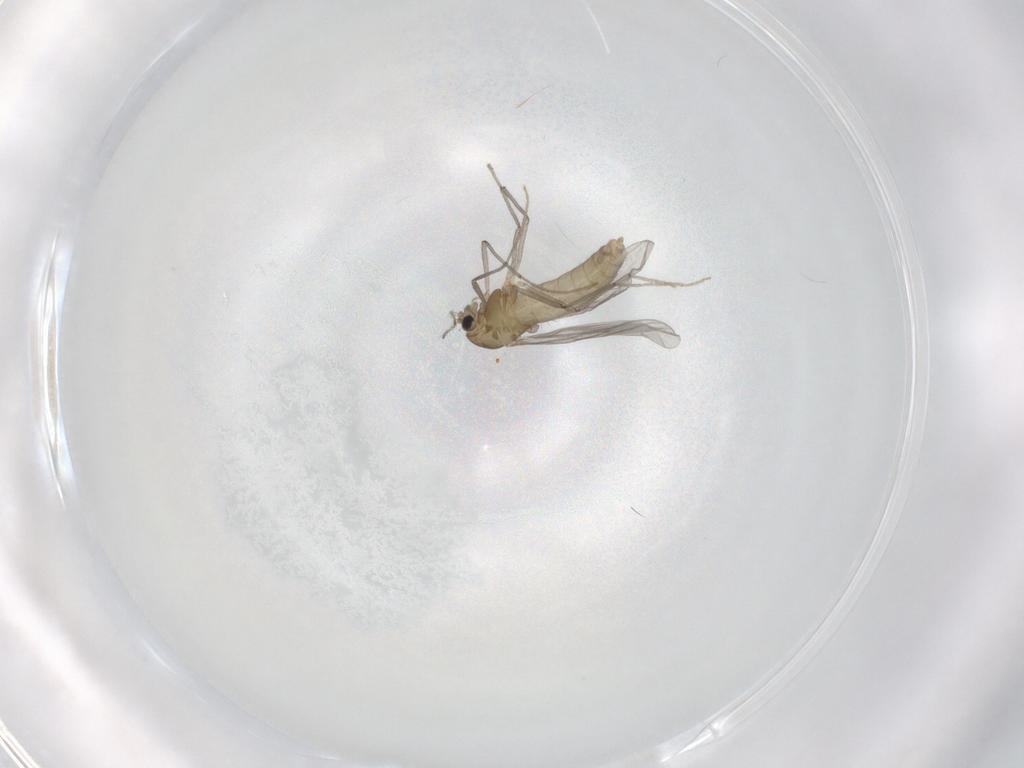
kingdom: Animalia
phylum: Arthropoda
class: Insecta
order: Diptera
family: Chironomidae
